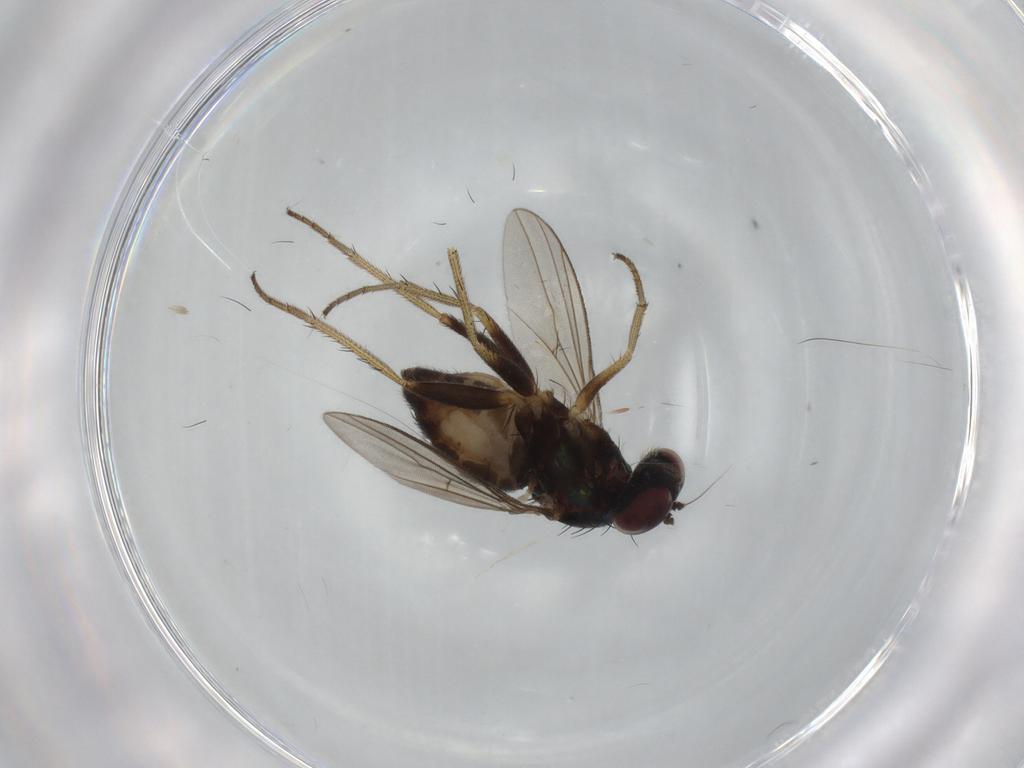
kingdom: Animalia
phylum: Arthropoda
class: Insecta
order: Diptera
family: Dolichopodidae
